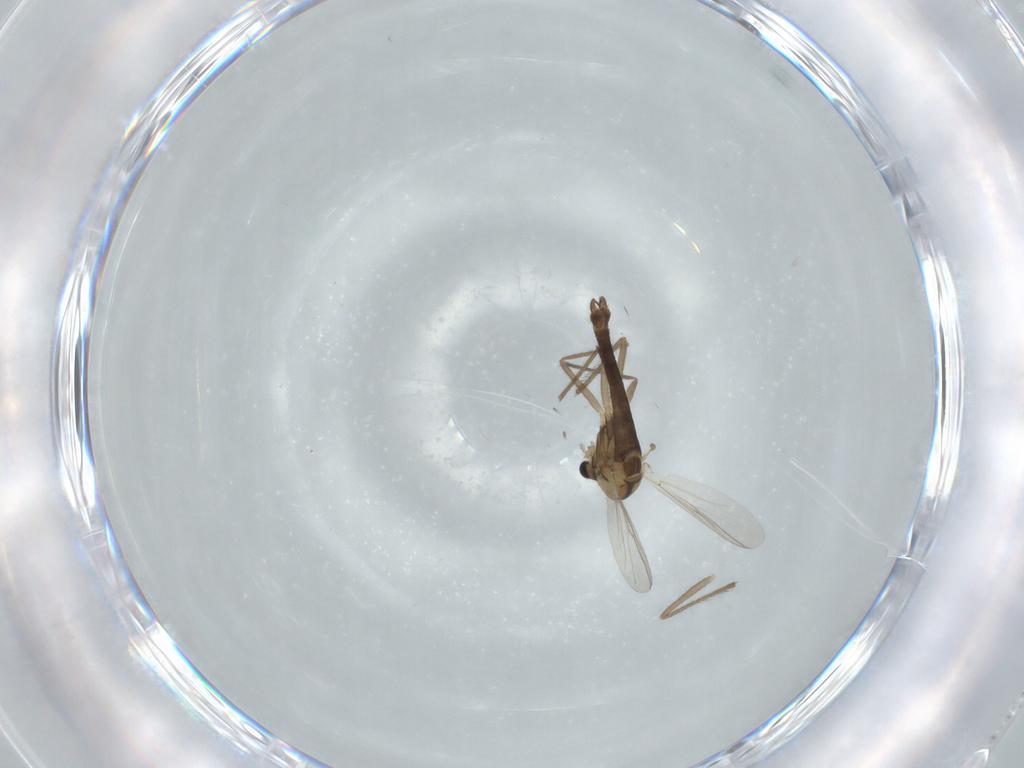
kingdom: Animalia
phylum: Arthropoda
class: Insecta
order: Diptera
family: Chironomidae
